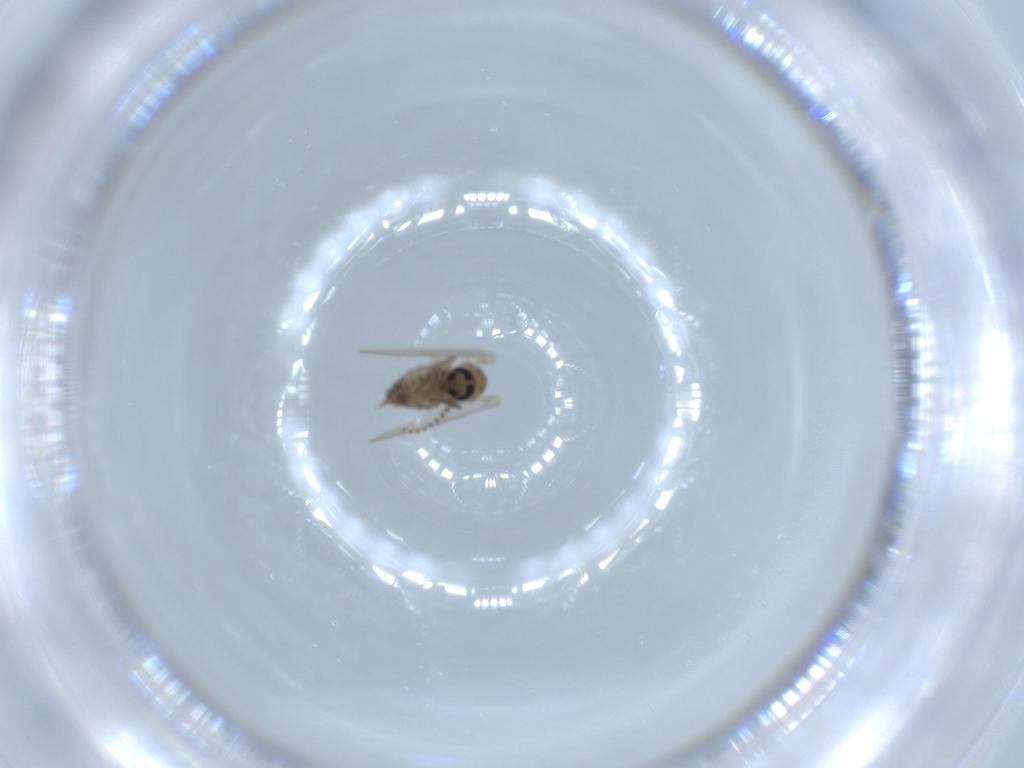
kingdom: Animalia
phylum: Arthropoda
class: Insecta
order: Diptera
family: Psychodidae
